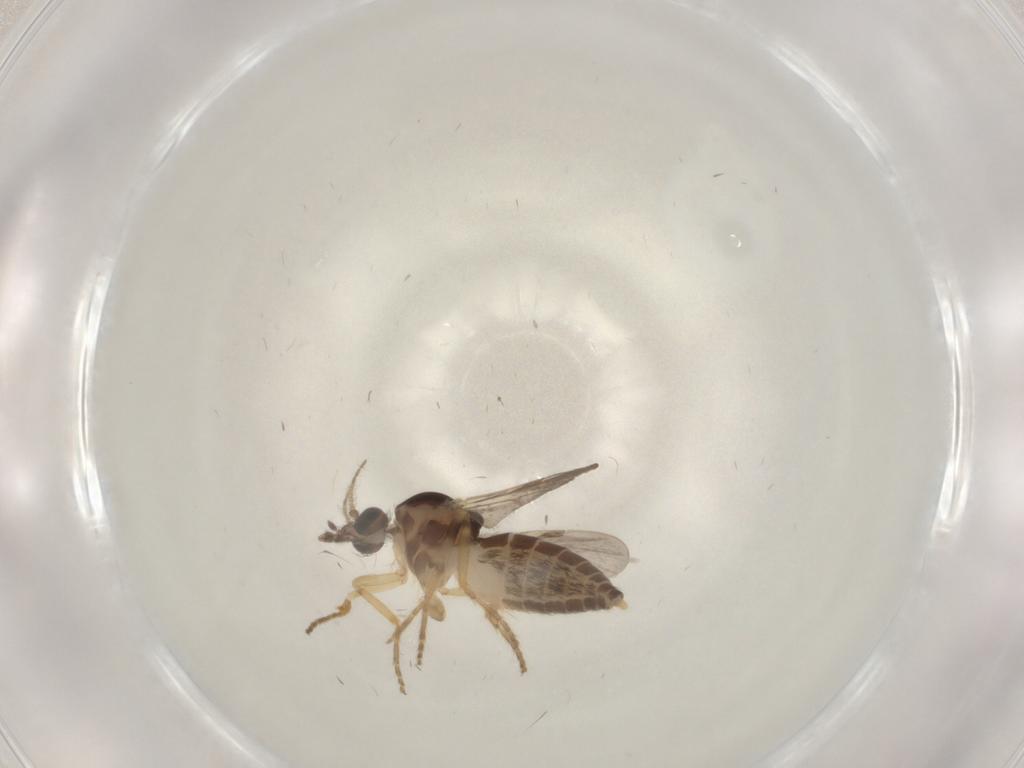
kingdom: Animalia
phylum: Arthropoda
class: Insecta
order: Diptera
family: Ceratopogonidae
